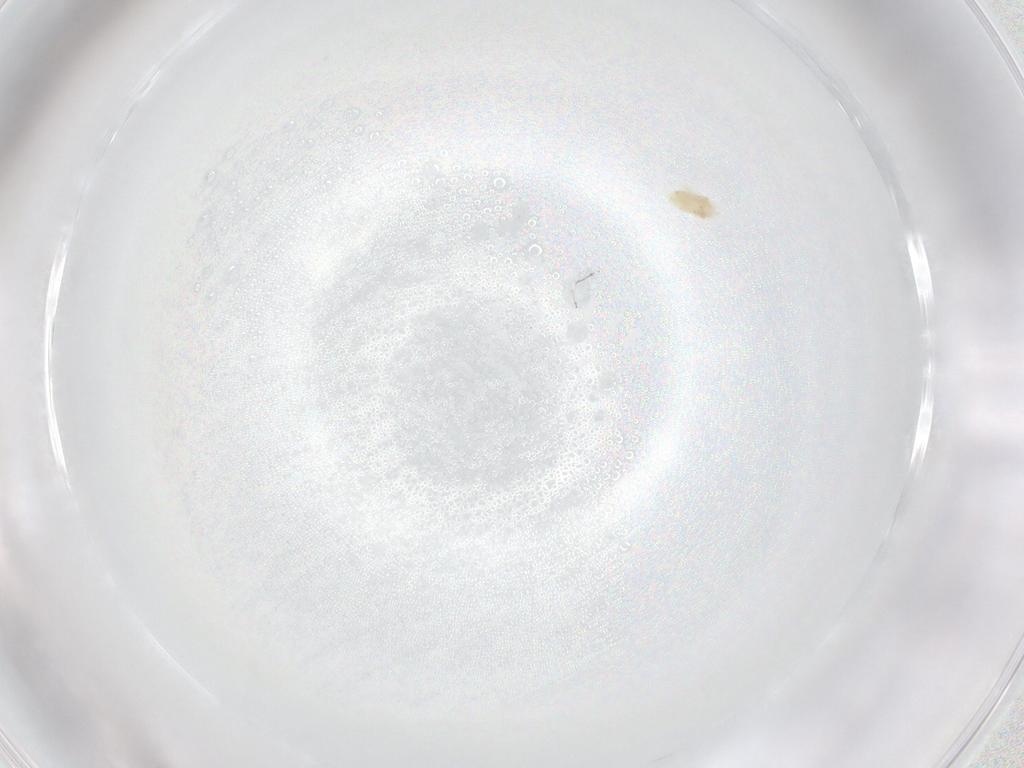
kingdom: Animalia
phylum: Arthropoda
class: Arachnida
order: Trombidiformes
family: Eupodidae
